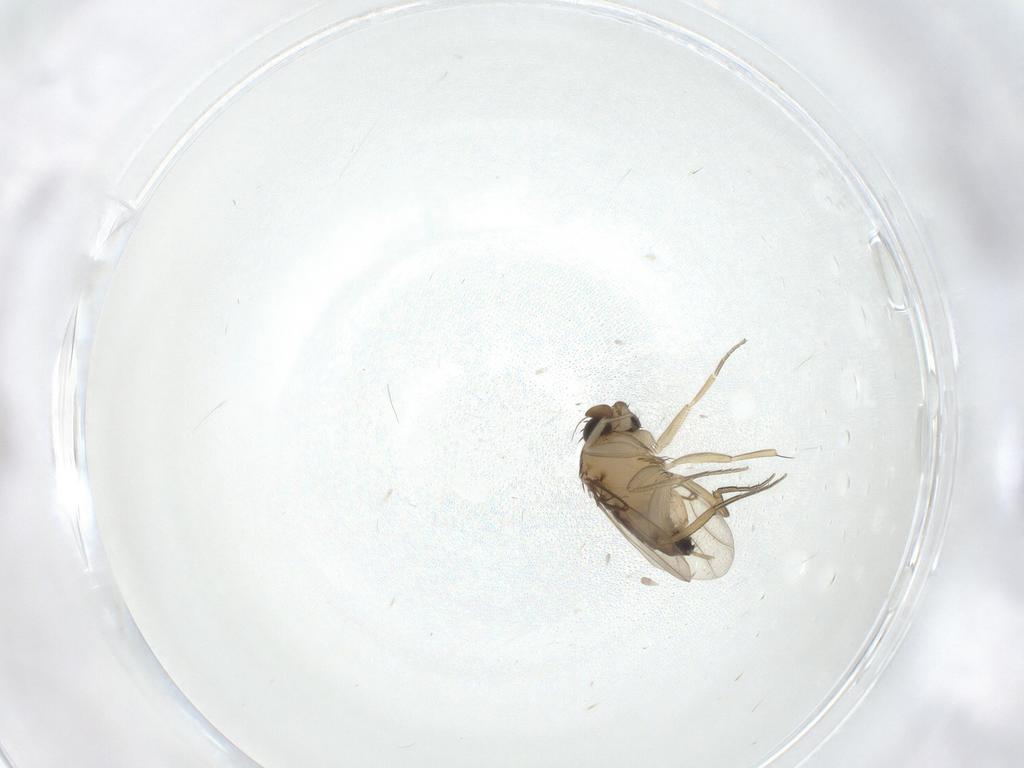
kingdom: Animalia
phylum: Arthropoda
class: Insecta
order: Diptera
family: Phoridae
